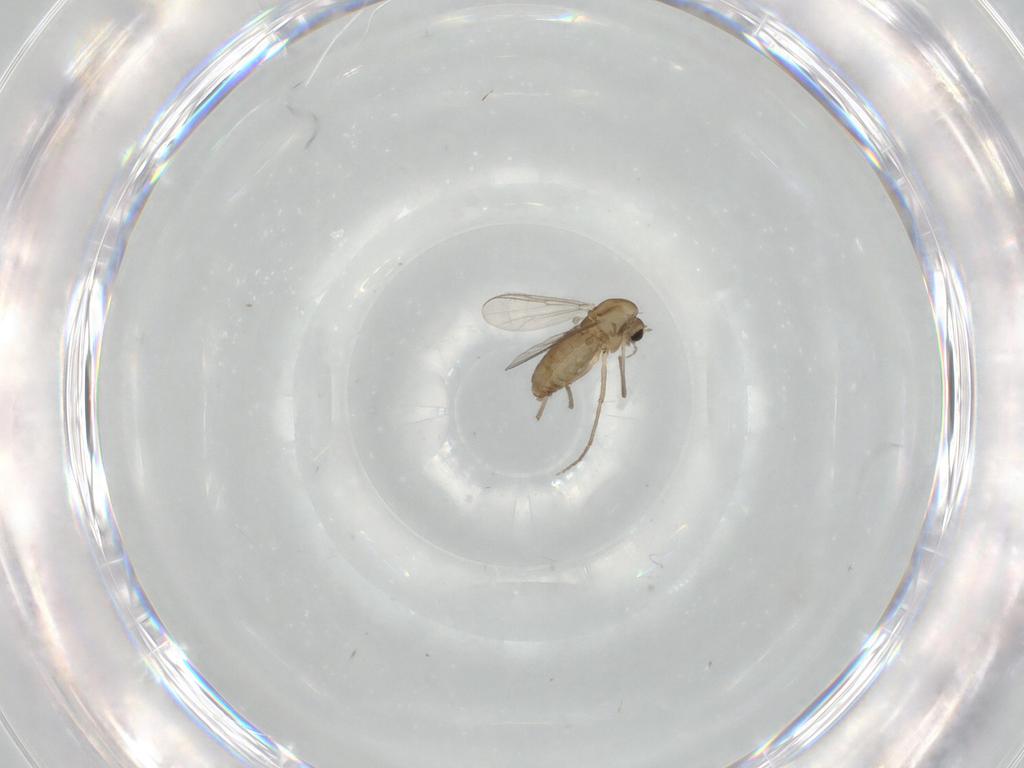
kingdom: Animalia
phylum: Arthropoda
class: Insecta
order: Diptera
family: Chironomidae
